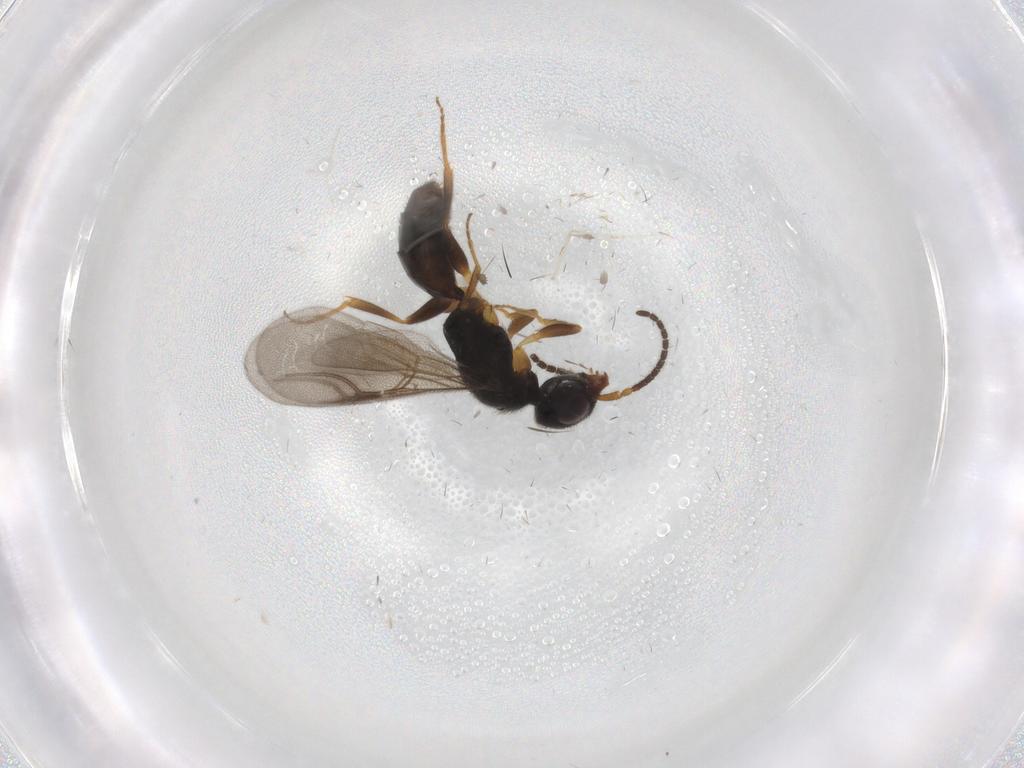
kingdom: Animalia
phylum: Arthropoda
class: Insecta
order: Hymenoptera
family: Bethylidae
